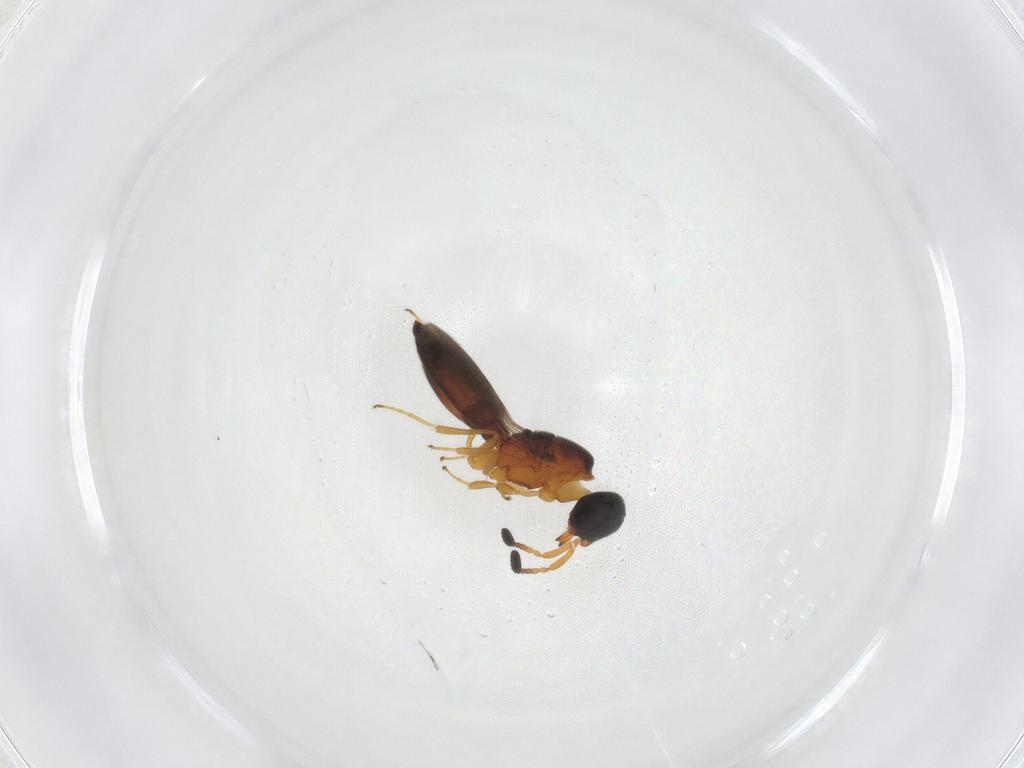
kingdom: Animalia
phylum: Arthropoda
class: Insecta
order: Hymenoptera
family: Scelionidae
